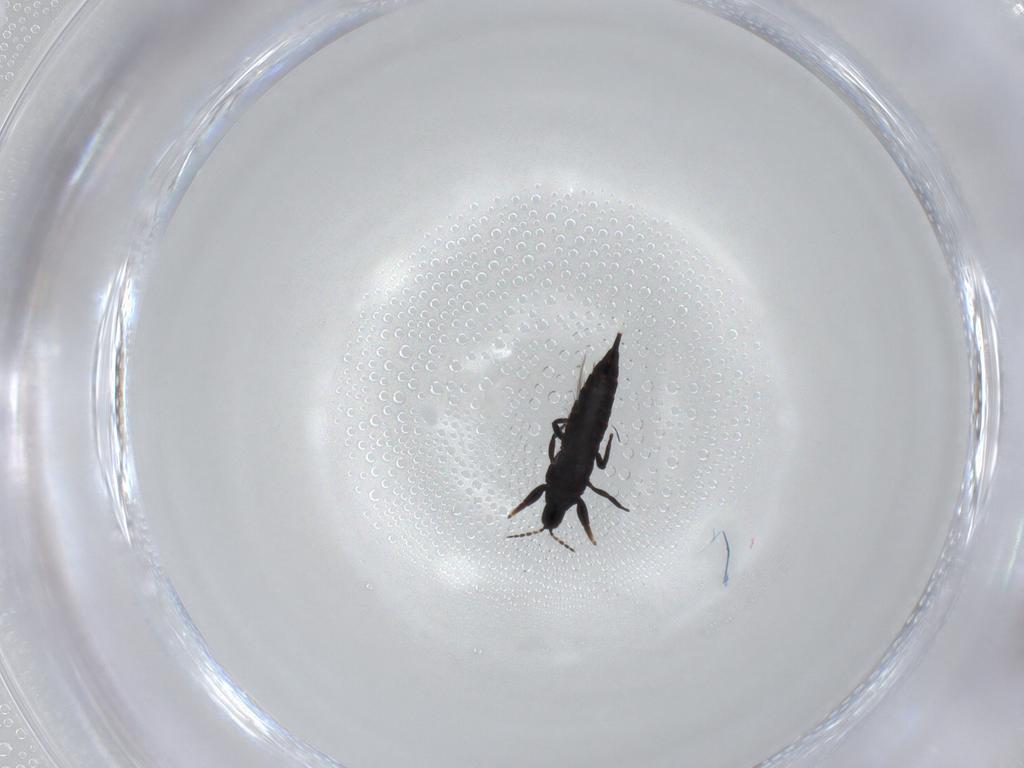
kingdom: Animalia
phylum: Arthropoda
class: Insecta
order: Thysanoptera
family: Phlaeothripidae
